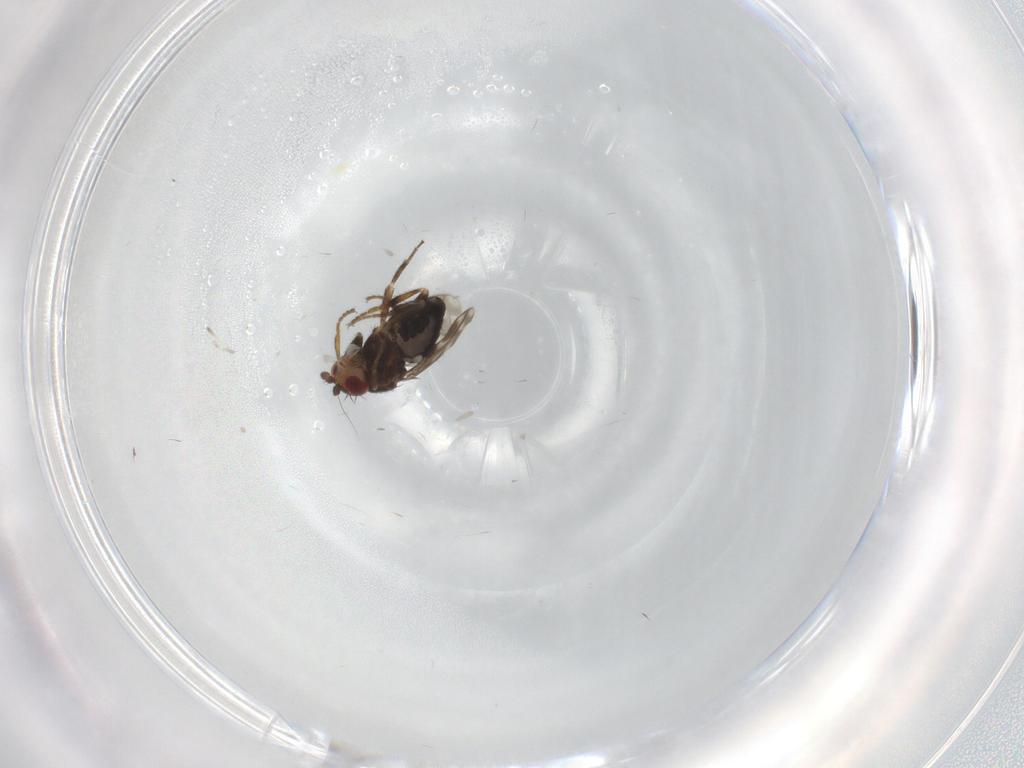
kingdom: Animalia
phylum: Arthropoda
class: Insecta
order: Diptera
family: Sphaeroceridae
